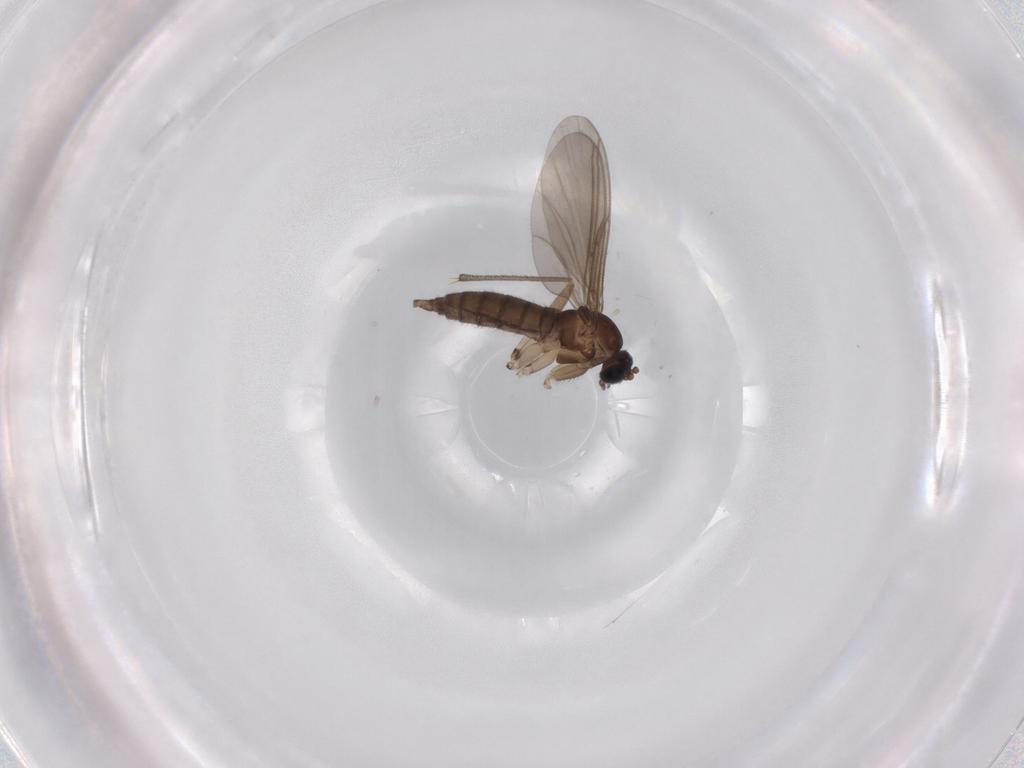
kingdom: Animalia
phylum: Arthropoda
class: Insecta
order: Diptera
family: Sciaridae
